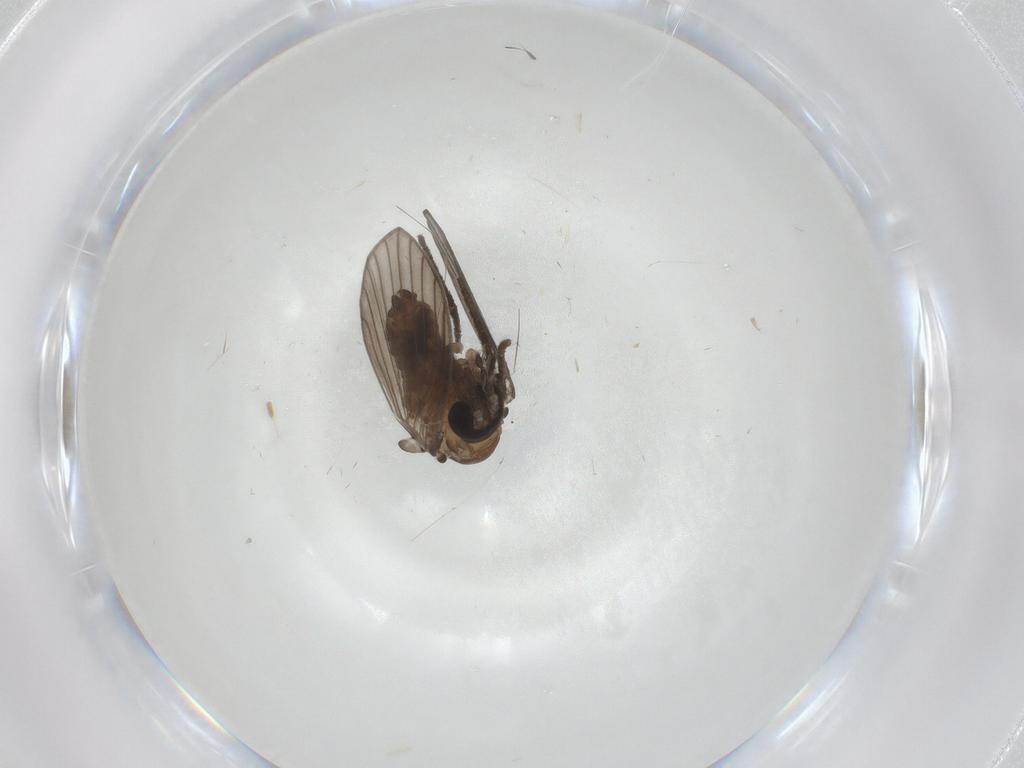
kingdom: Animalia
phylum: Arthropoda
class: Insecta
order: Diptera
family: Psychodidae
